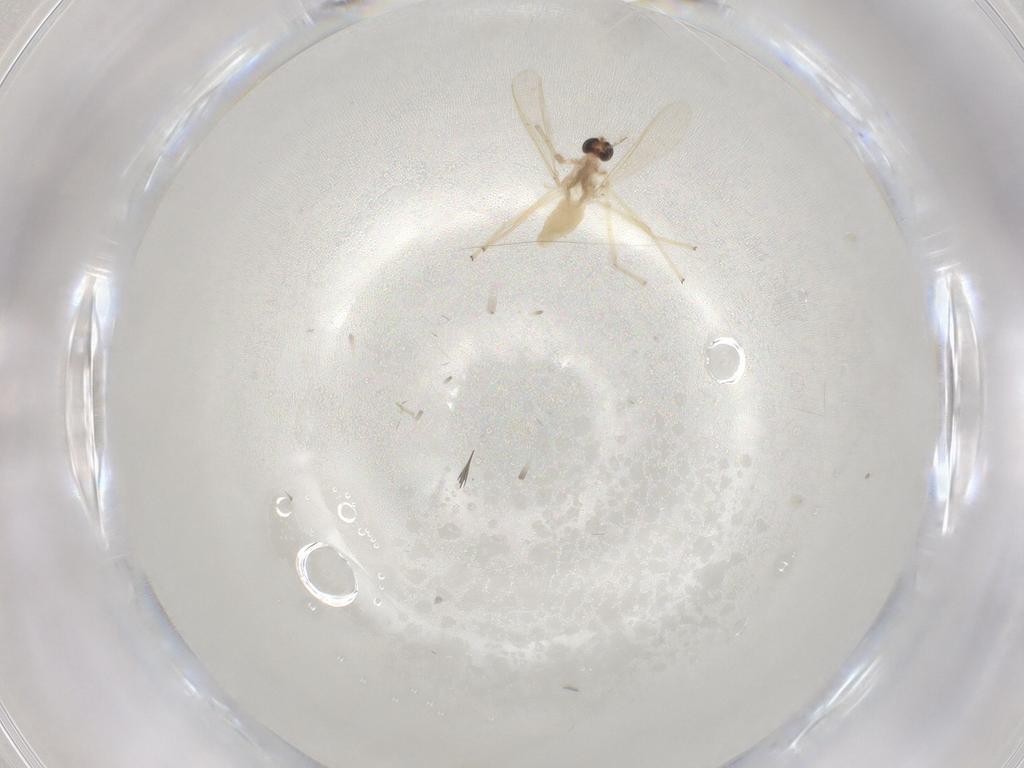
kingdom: Animalia
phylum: Arthropoda
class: Insecta
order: Diptera
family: Chironomidae
